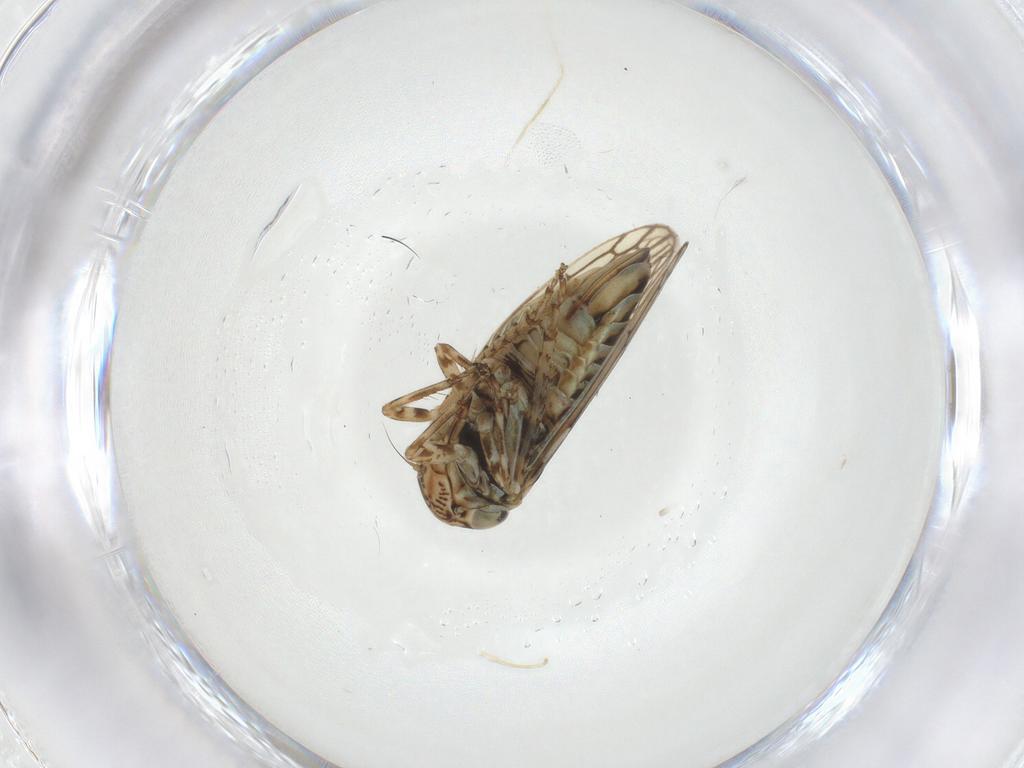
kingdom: Animalia
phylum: Arthropoda
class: Insecta
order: Hemiptera
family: Cicadellidae
